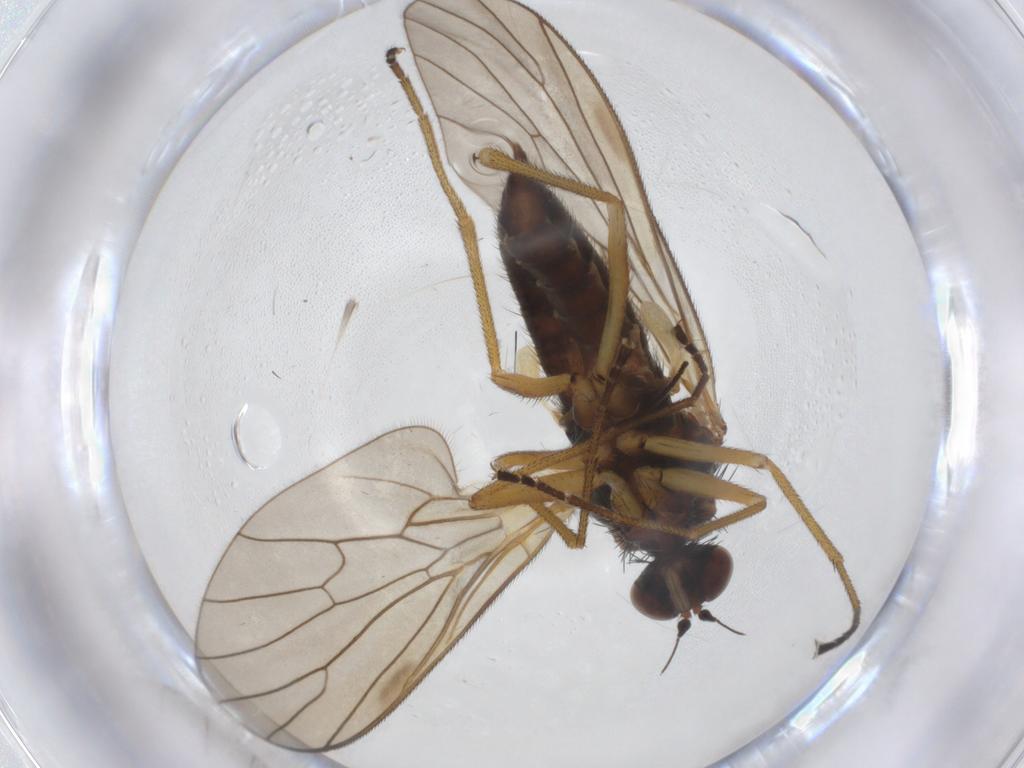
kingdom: Animalia
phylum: Arthropoda
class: Insecta
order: Diptera
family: Brachystomatidae
